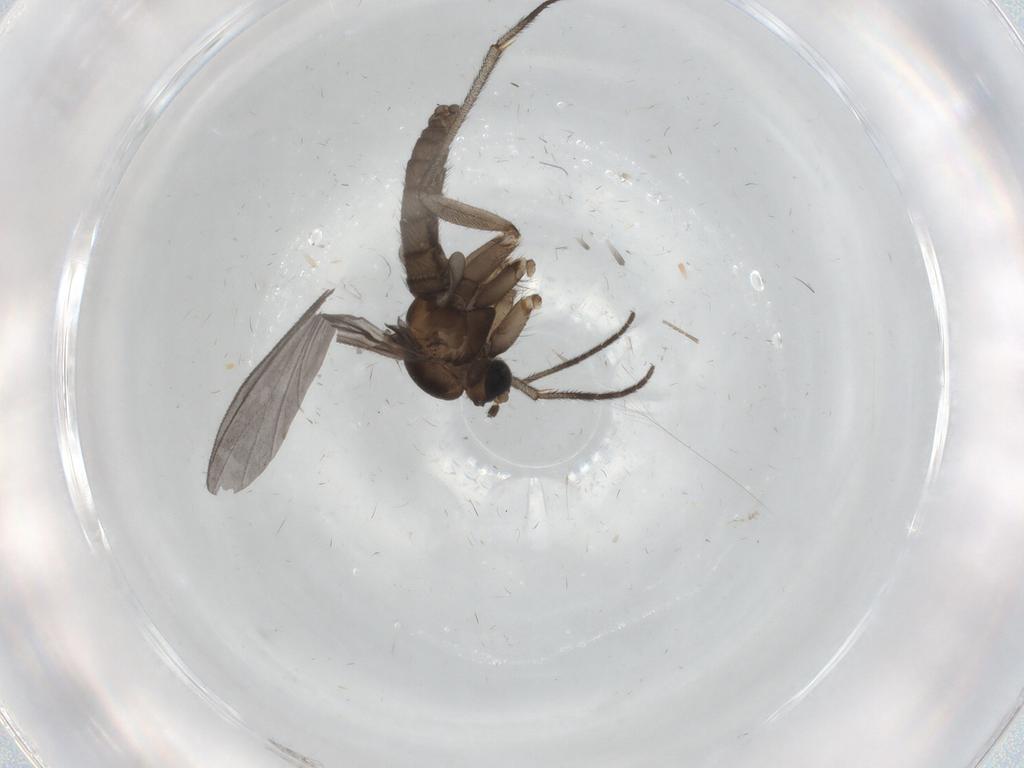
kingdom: Animalia
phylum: Arthropoda
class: Insecta
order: Diptera
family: Sciaridae
